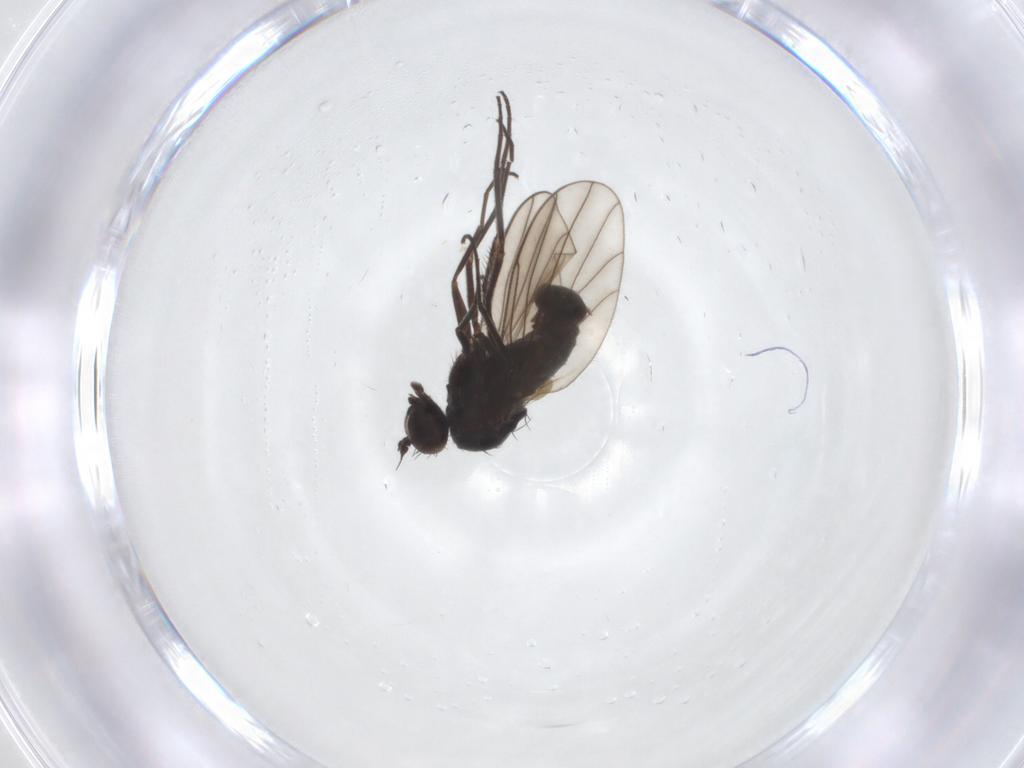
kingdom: Animalia
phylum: Arthropoda
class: Insecta
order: Diptera
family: Dolichopodidae
